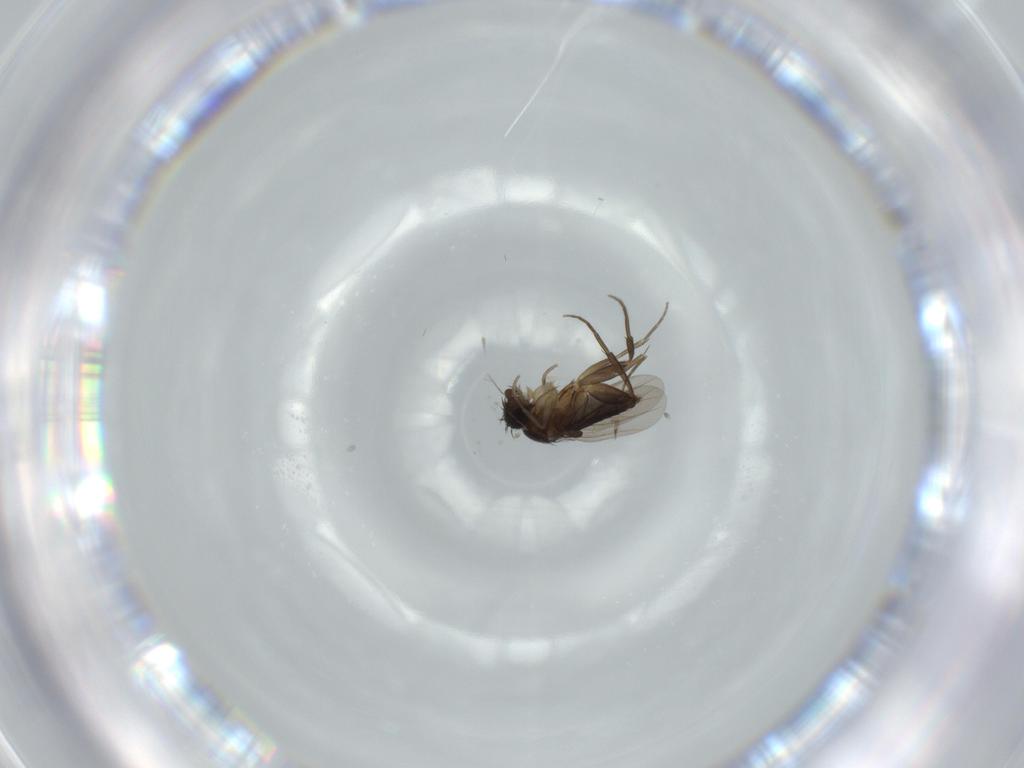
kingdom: Animalia
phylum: Arthropoda
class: Insecta
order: Diptera
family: Phoridae
